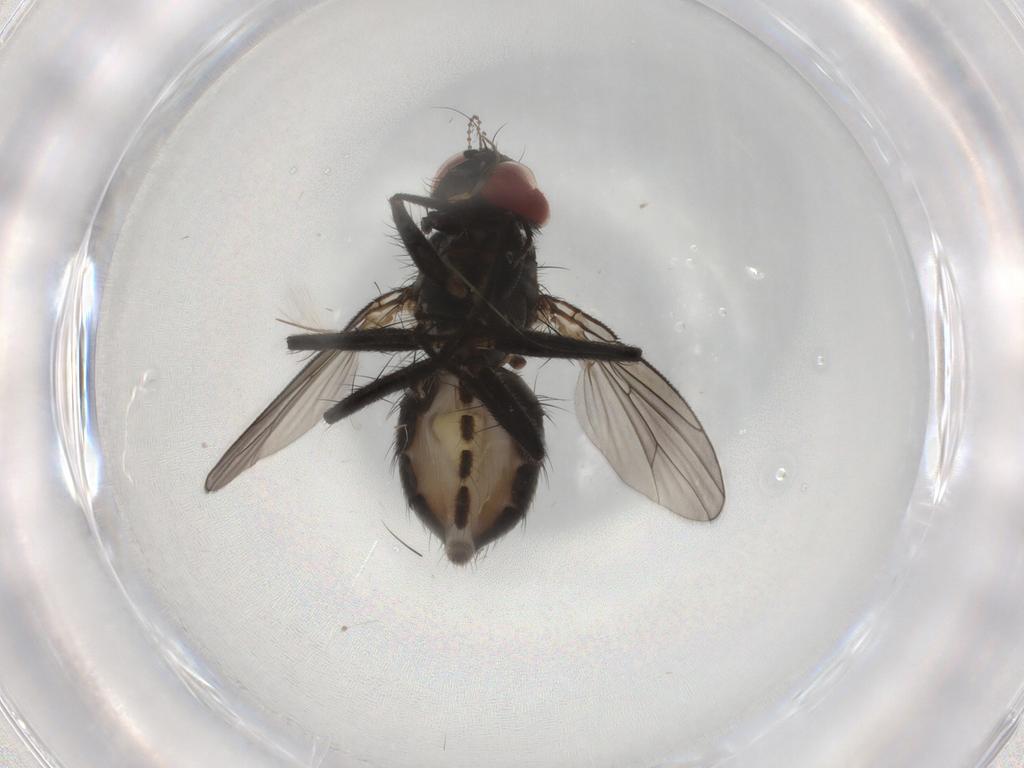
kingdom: Animalia
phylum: Arthropoda
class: Insecta
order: Diptera
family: Muscidae
